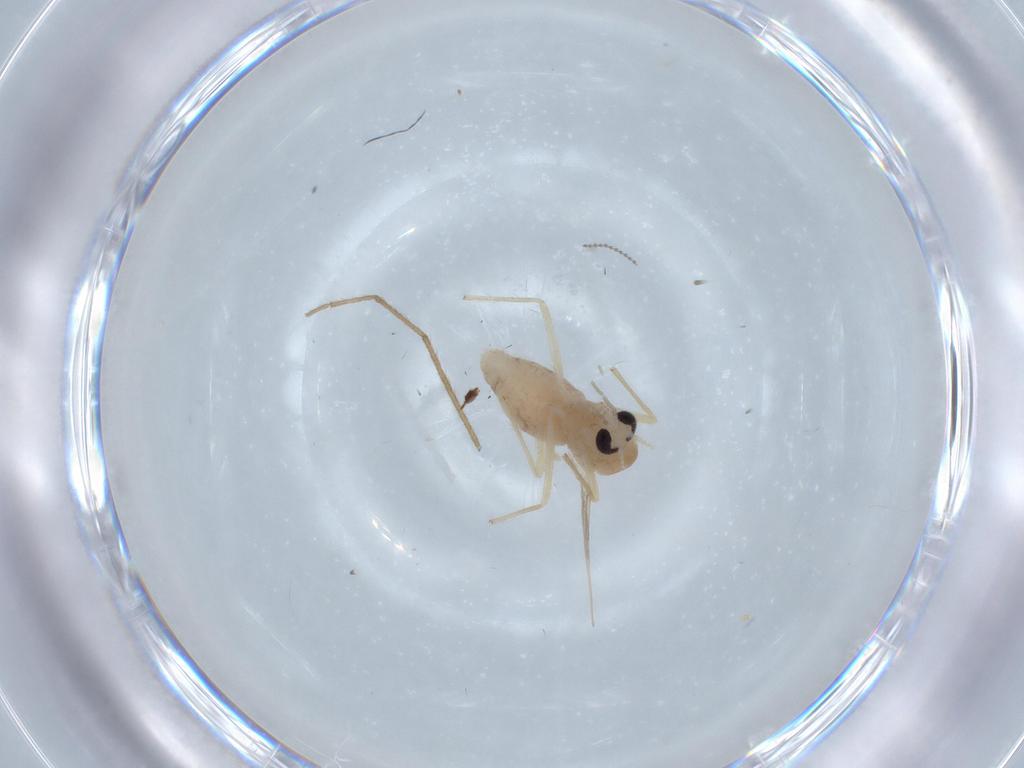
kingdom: Animalia
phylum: Arthropoda
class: Insecta
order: Diptera
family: Chironomidae
